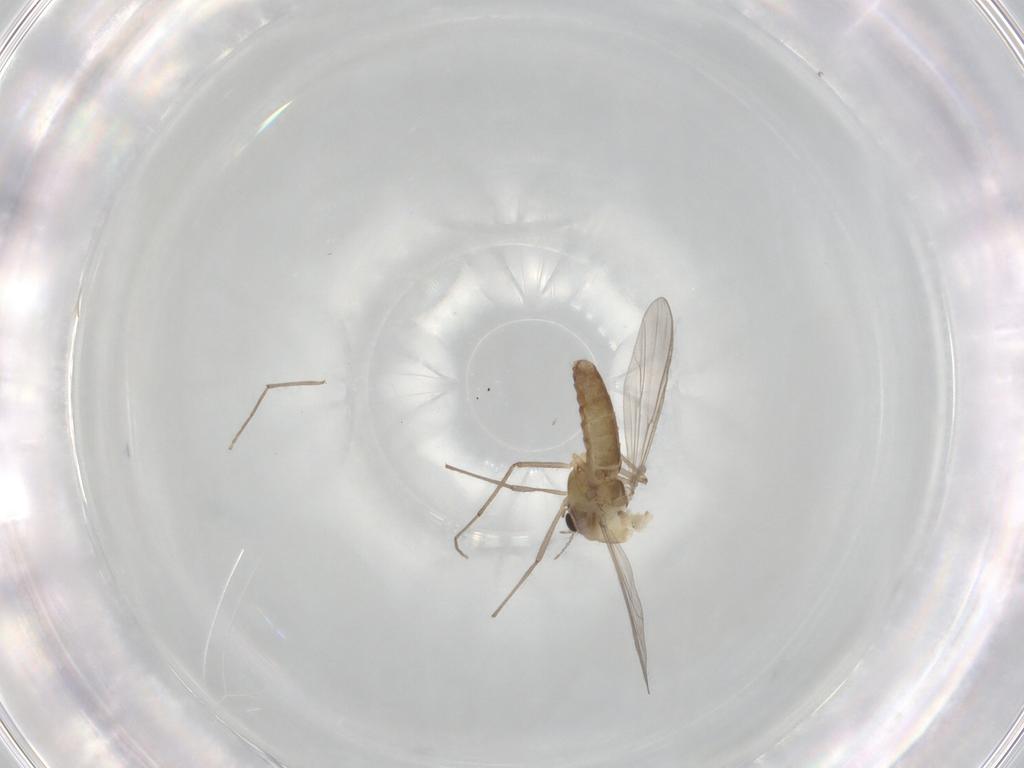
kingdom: Animalia
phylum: Arthropoda
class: Insecta
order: Diptera
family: Chironomidae
